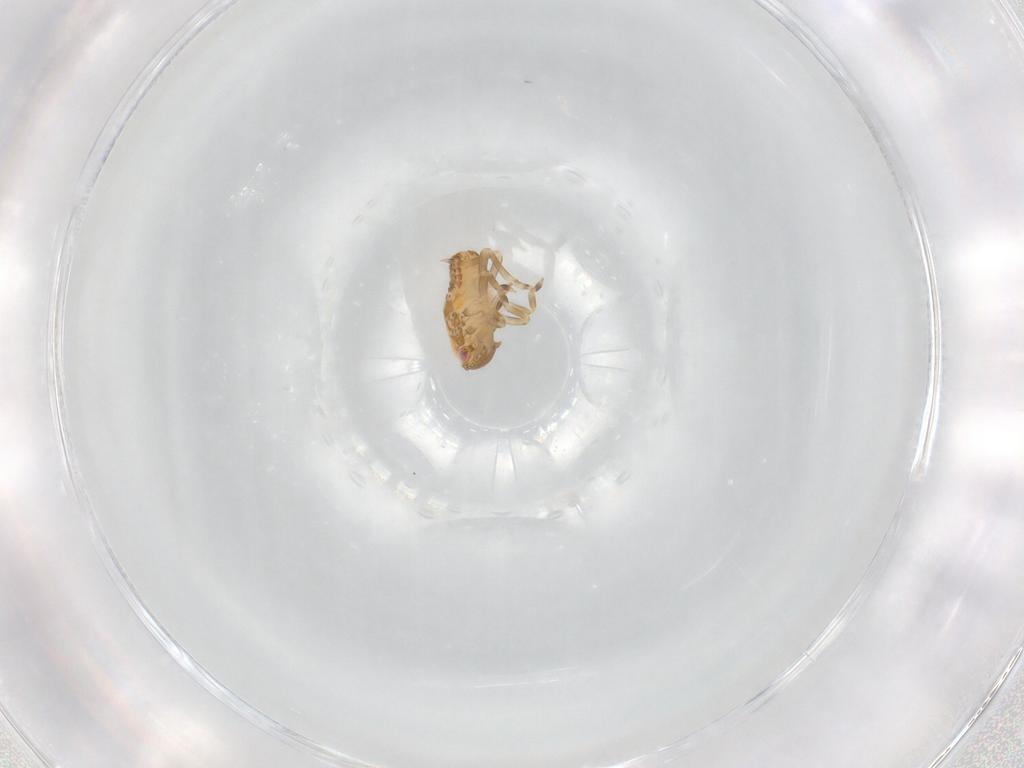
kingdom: Animalia
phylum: Arthropoda
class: Insecta
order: Hemiptera
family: Flatidae
